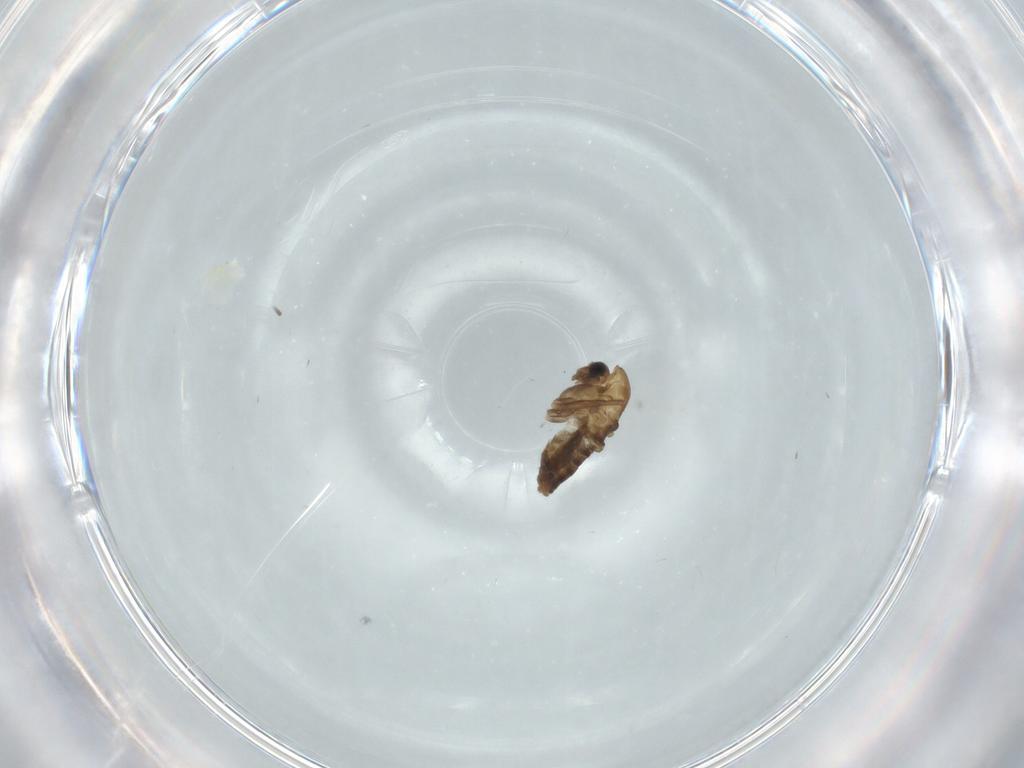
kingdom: Animalia
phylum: Arthropoda
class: Insecta
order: Diptera
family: Chironomidae
